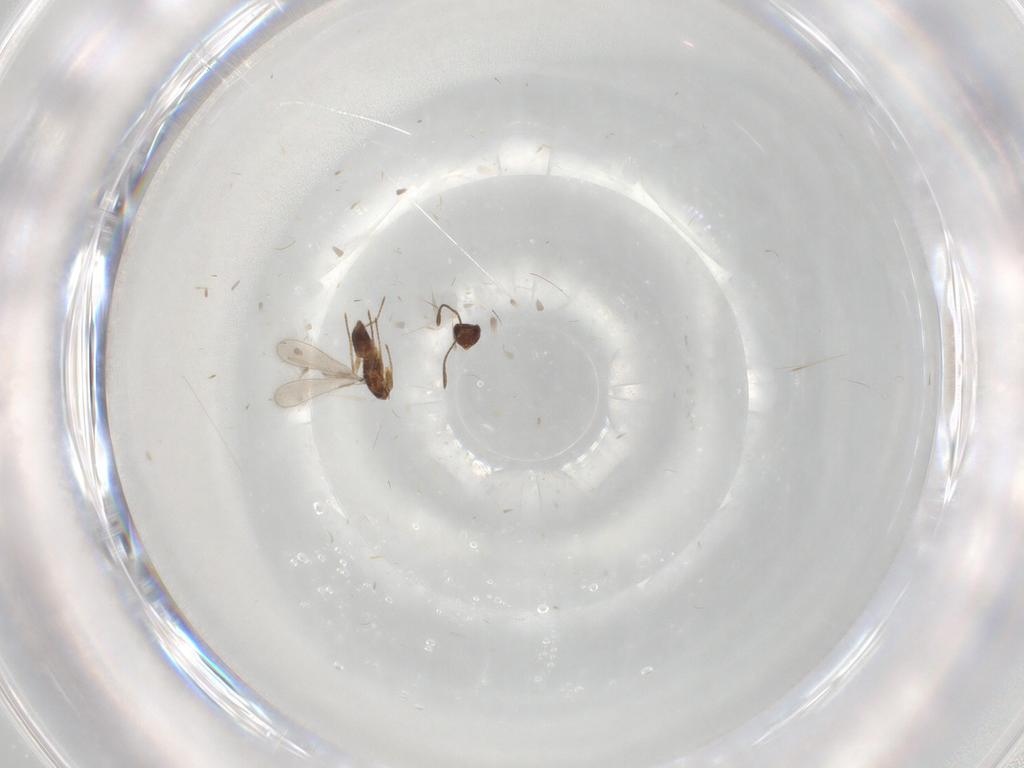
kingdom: Animalia
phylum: Arthropoda
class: Insecta
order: Hymenoptera
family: Mymaridae
